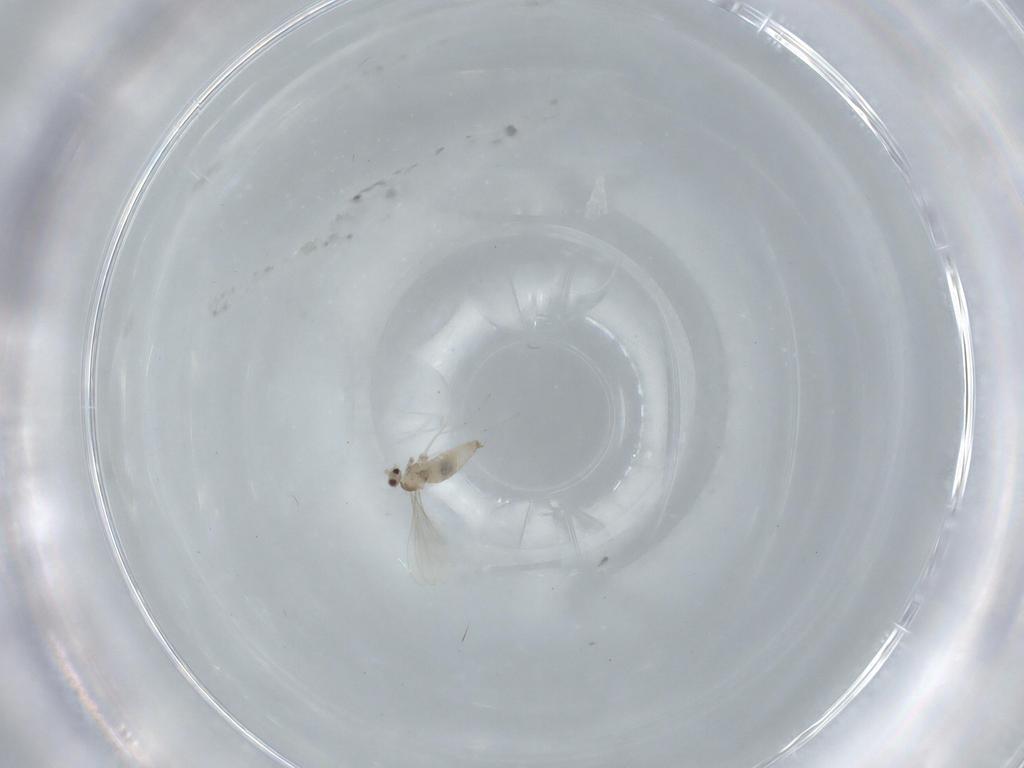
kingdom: Animalia
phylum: Arthropoda
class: Insecta
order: Diptera
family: Cecidomyiidae
